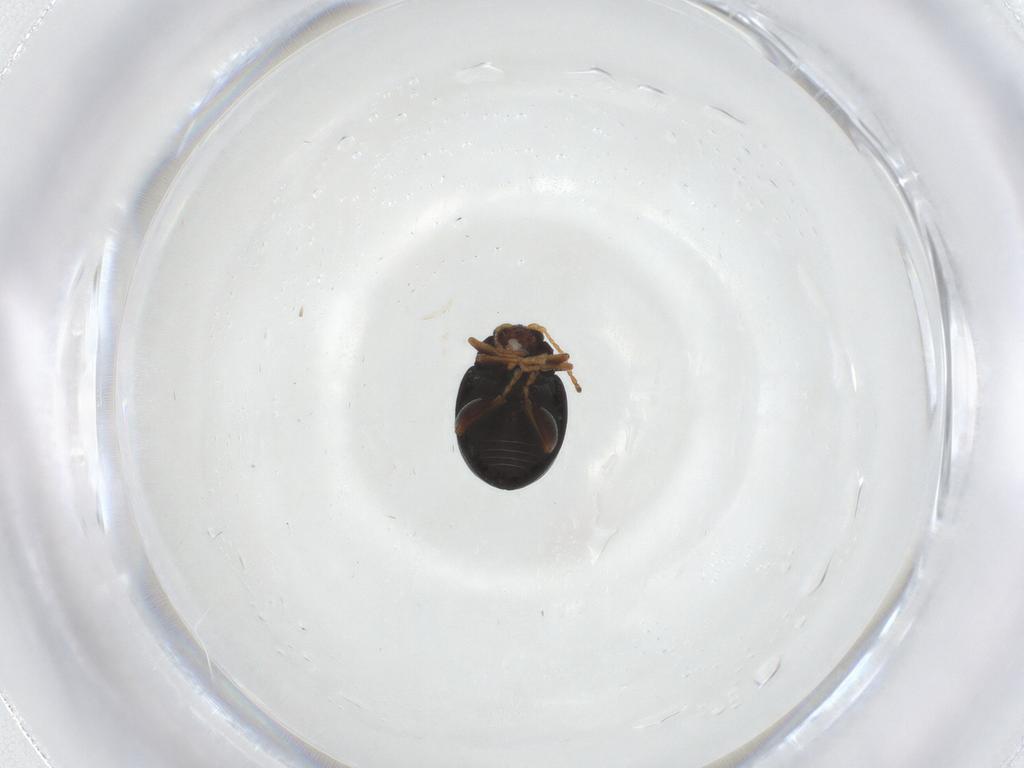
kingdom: Animalia
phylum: Arthropoda
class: Insecta
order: Coleoptera
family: Chrysomelidae
